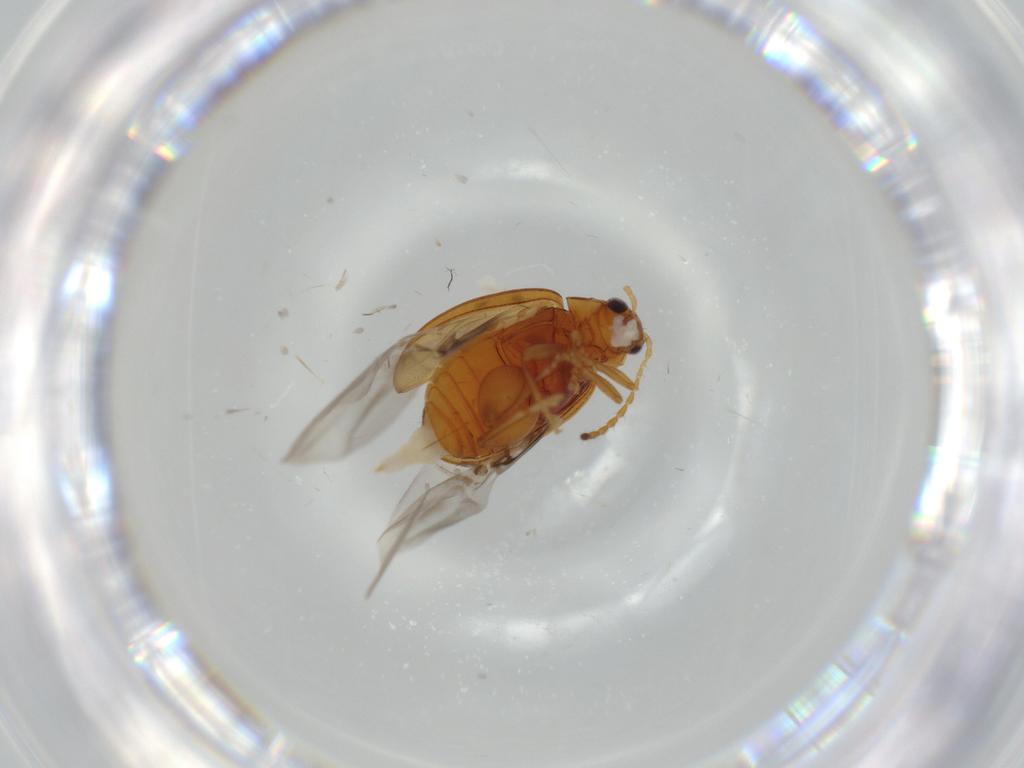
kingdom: Animalia
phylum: Arthropoda
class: Insecta
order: Coleoptera
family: Chrysomelidae
